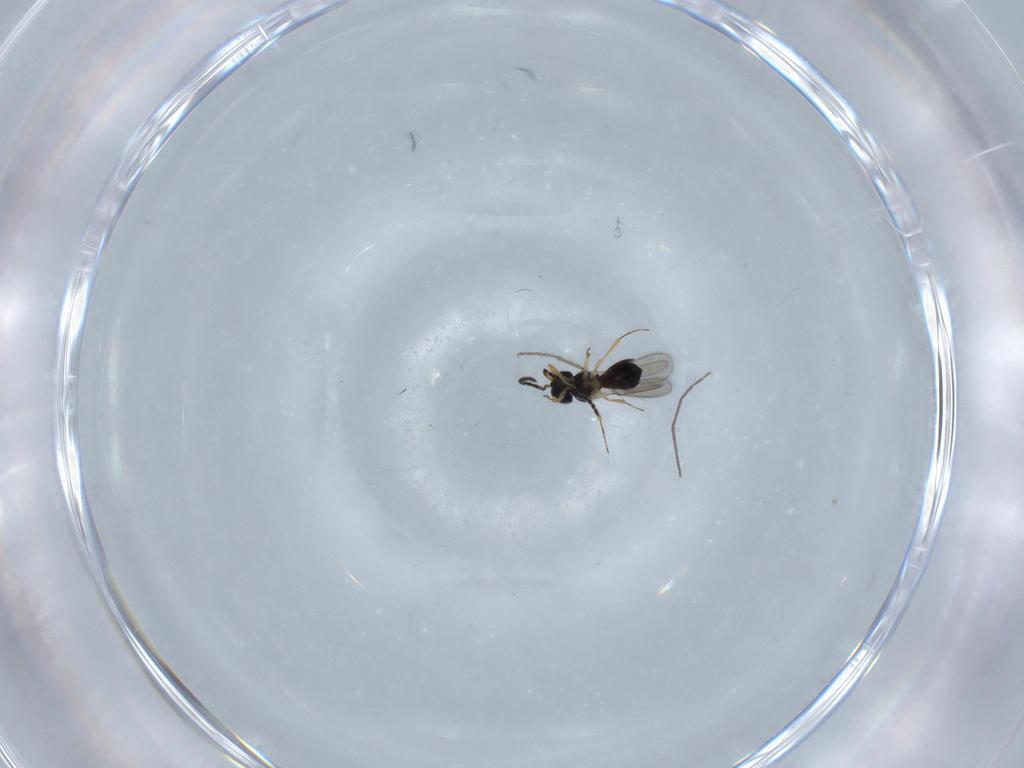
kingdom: Animalia
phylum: Arthropoda
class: Insecta
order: Hymenoptera
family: Scelionidae
